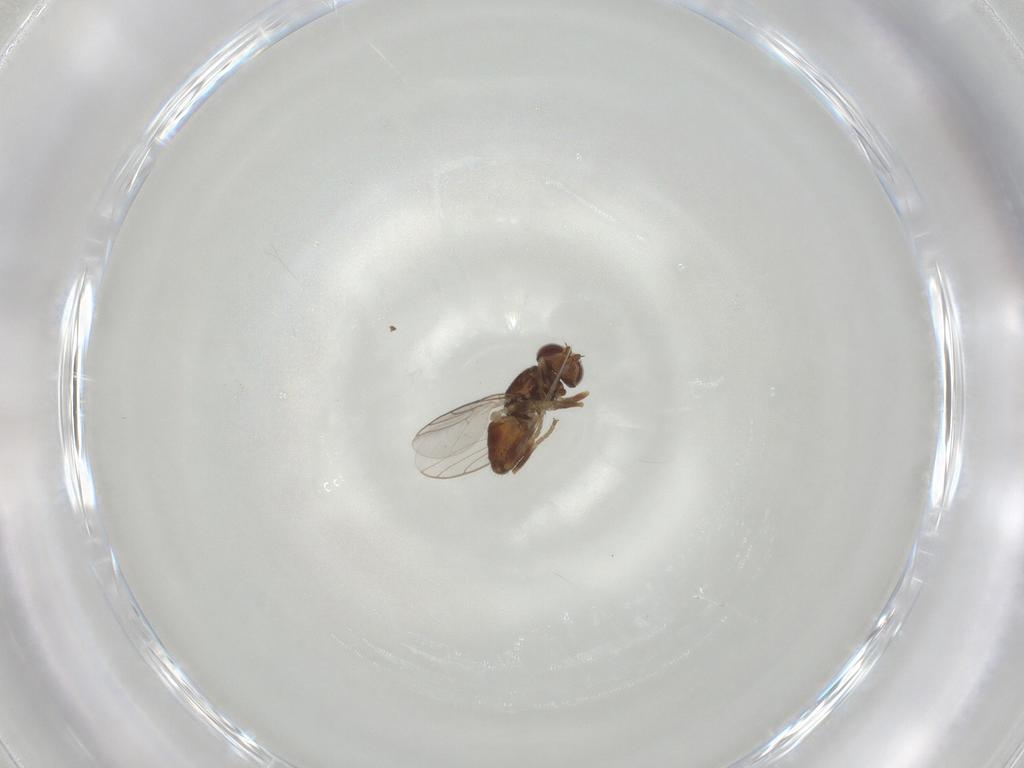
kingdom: Animalia
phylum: Arthropoda
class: Insecta
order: Diptera
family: Chloropidae
